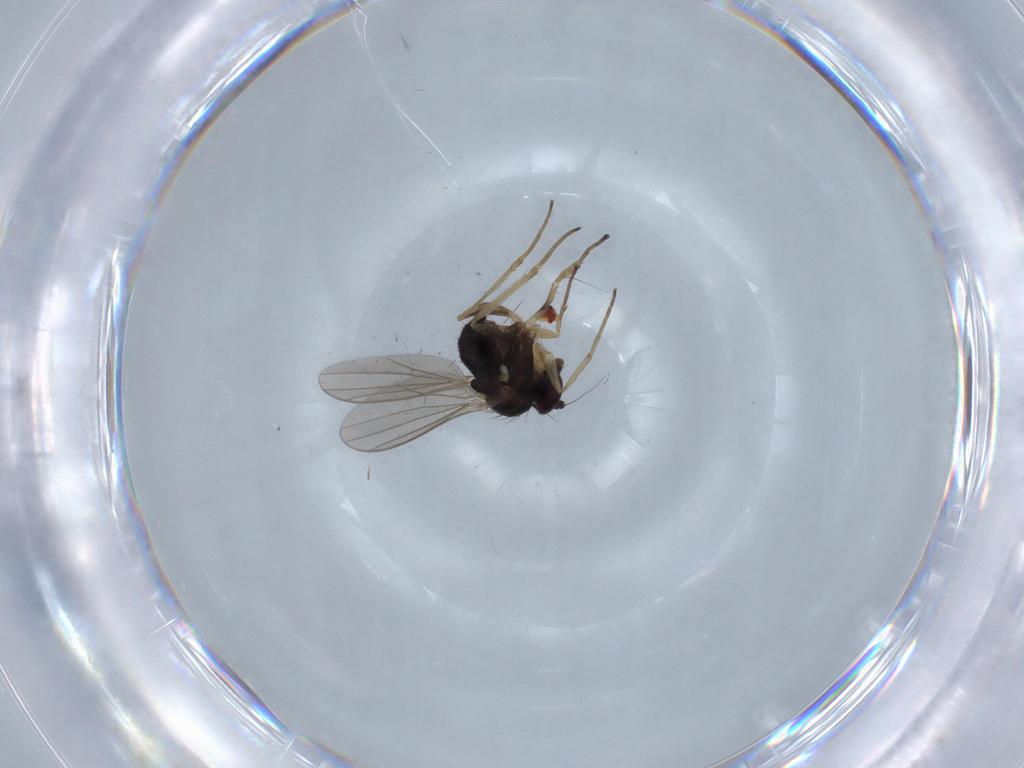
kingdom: Animalia
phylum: Arthropoda
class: Insecta
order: Diptera
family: Dolichopodidae
